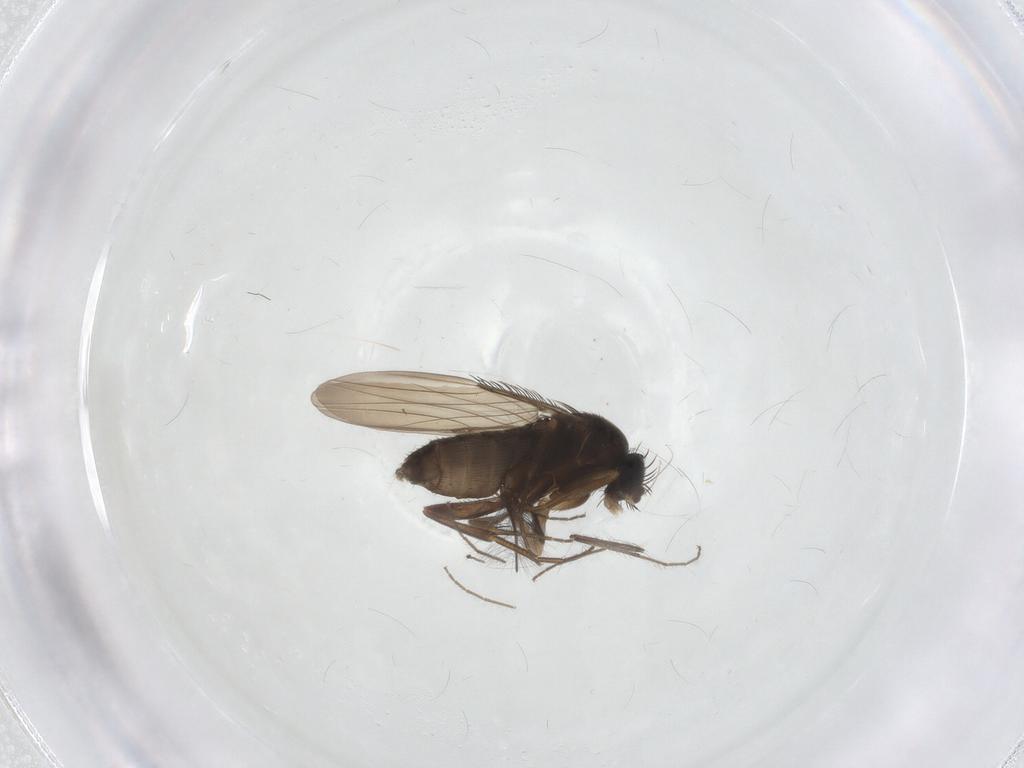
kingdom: Animalia
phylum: Arthropoda
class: Insecta
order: Diptera
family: Phoridae
